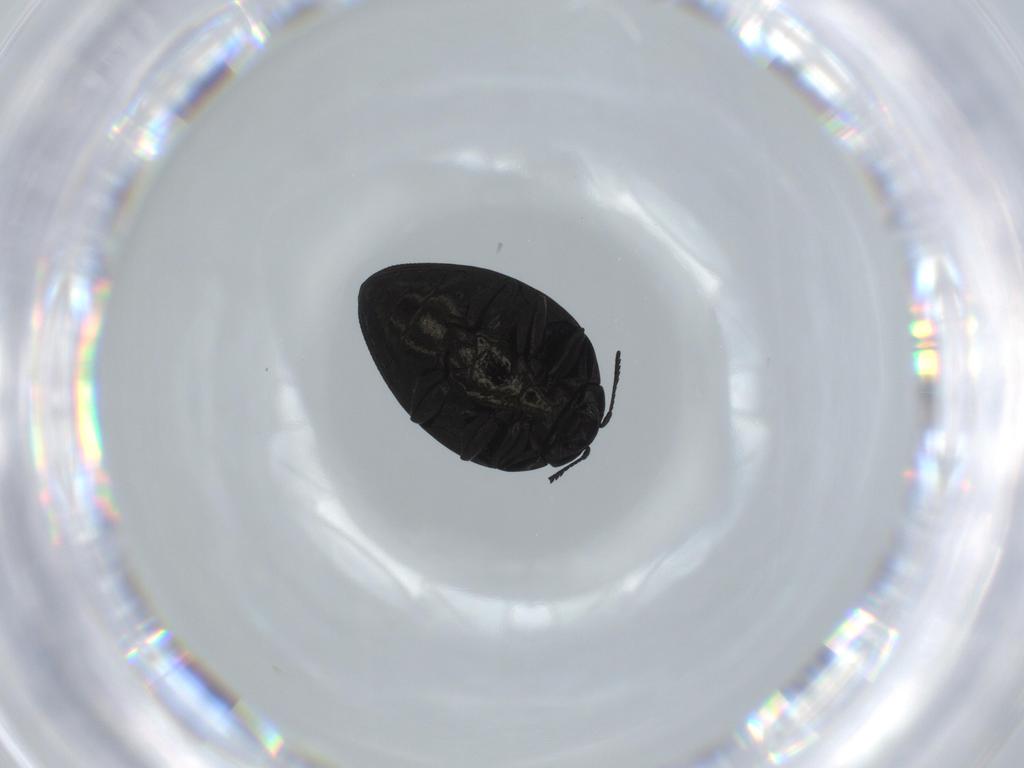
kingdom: Animalia
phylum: Arthropoda
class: Insecta
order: Coleoptera
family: Buprestidae
